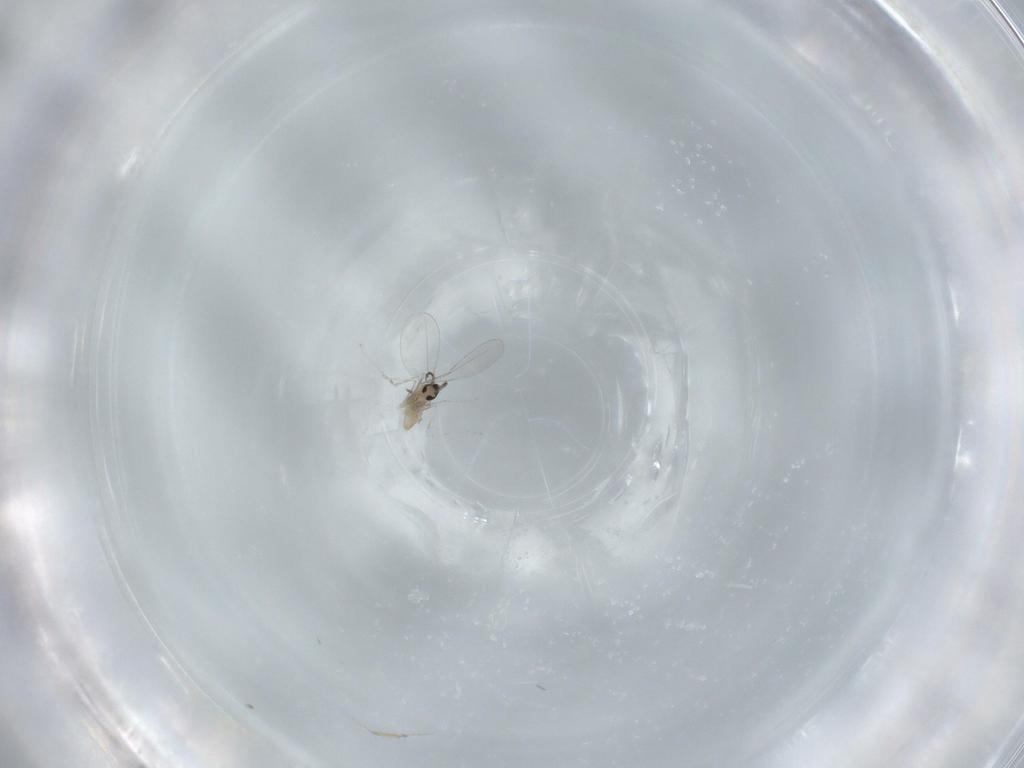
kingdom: Animalia
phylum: Arthropoda
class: Insecta
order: Diptera
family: Cecidomyiidae
